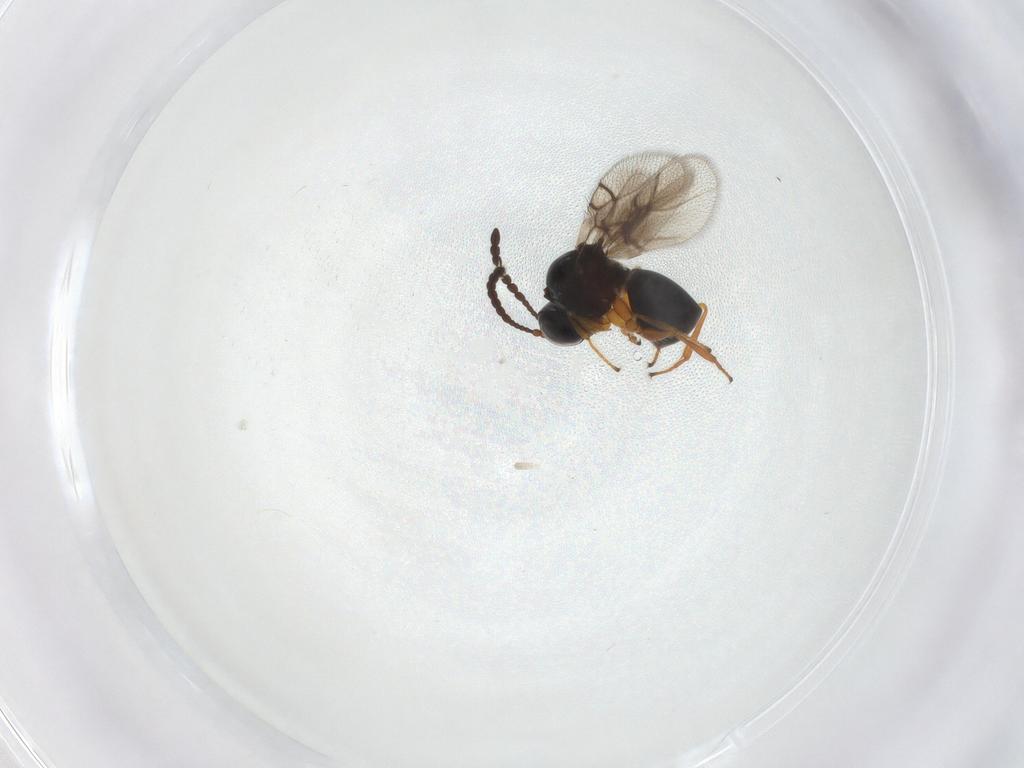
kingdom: Animalia
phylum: Arthropoda
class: Insecta
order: Hymenoptera
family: Figitidae
